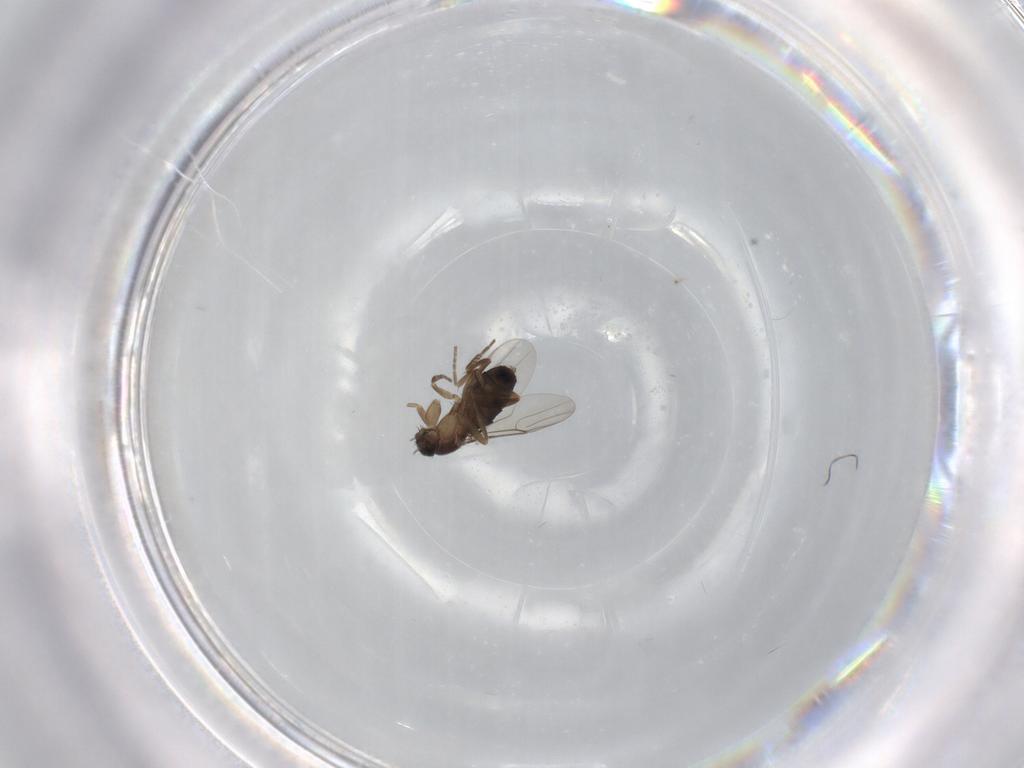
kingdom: Animalia
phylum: Arthropoda
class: Insecta
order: Diptera
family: Phoridae
